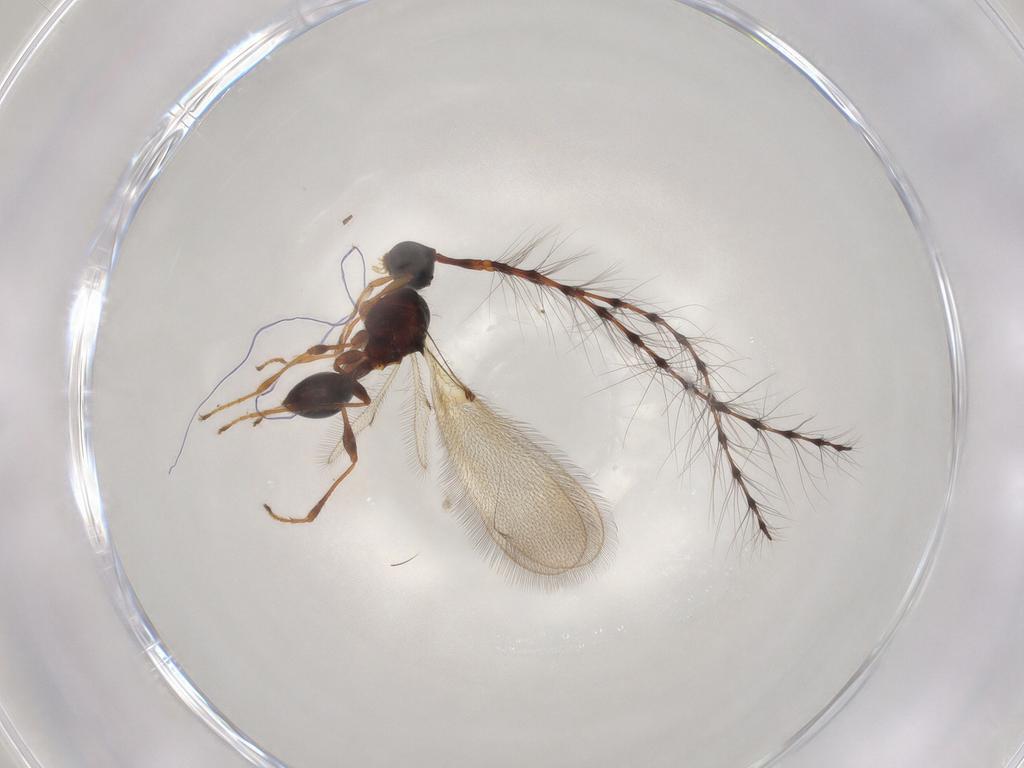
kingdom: Animalia
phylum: Arthropoda
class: Insecta
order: Hymenoptera
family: Diapriidae
